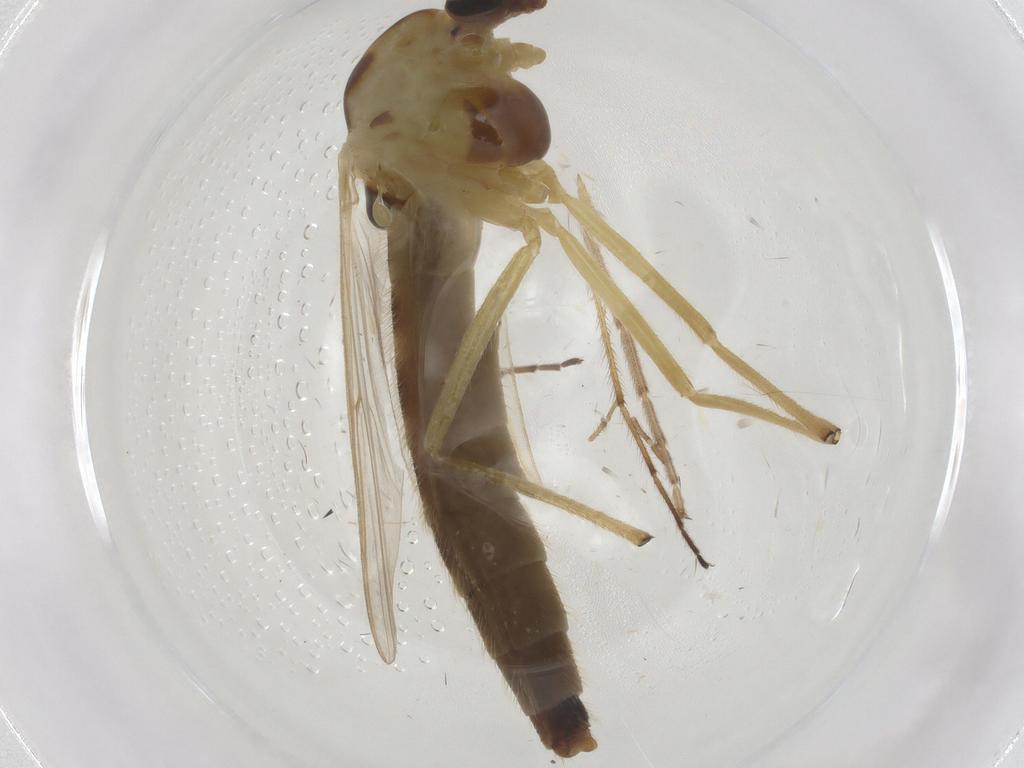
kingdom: Animalia
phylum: Arthropoda
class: Insecta
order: Diptera
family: Chironomidae
